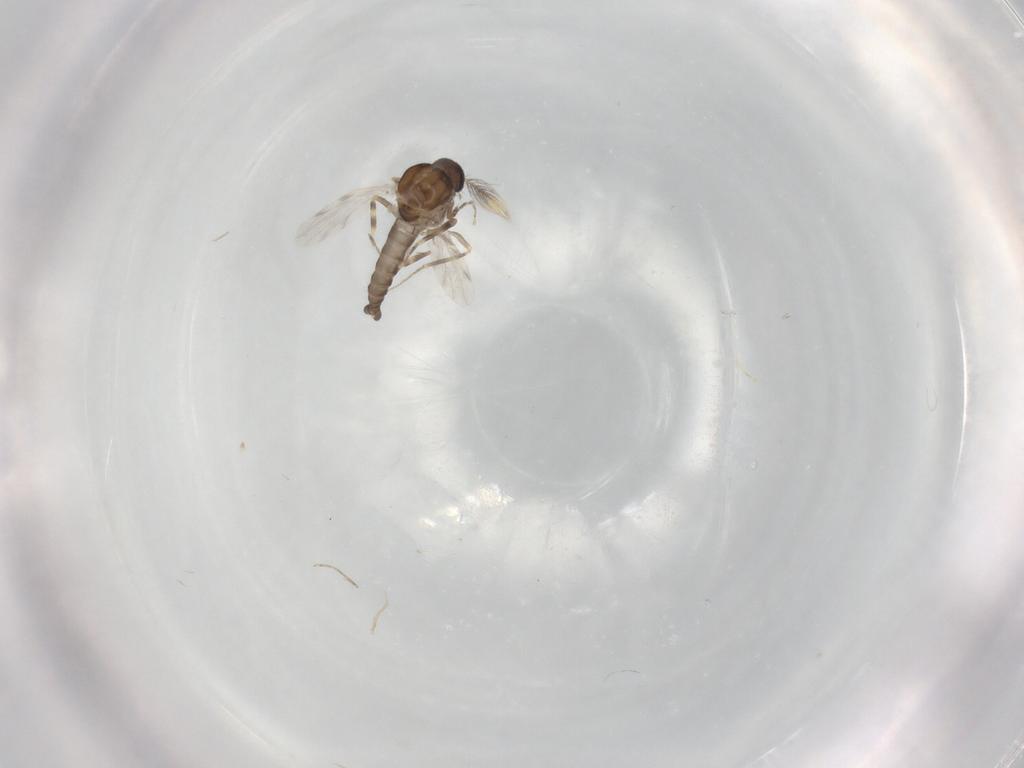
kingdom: Animalia
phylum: Arthropoda
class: Insecta
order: Diptera
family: Ceratopogonidae
